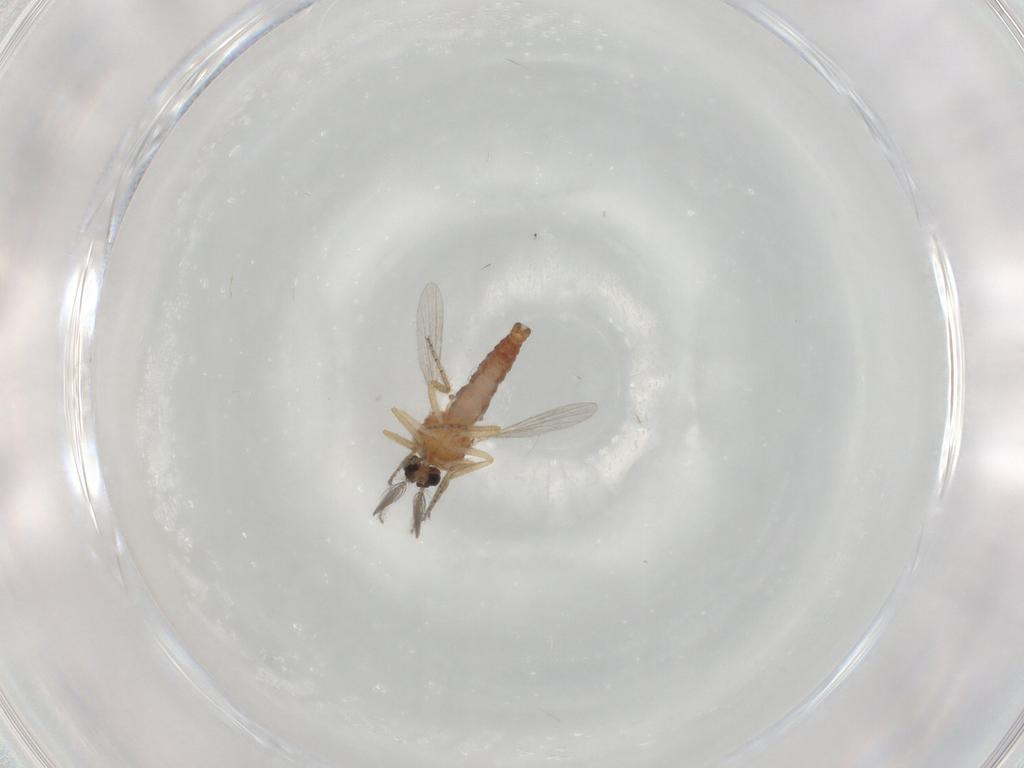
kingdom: Animalia
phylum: Arthropoda
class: Insecta
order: Diptera
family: Ceratopogonidae
